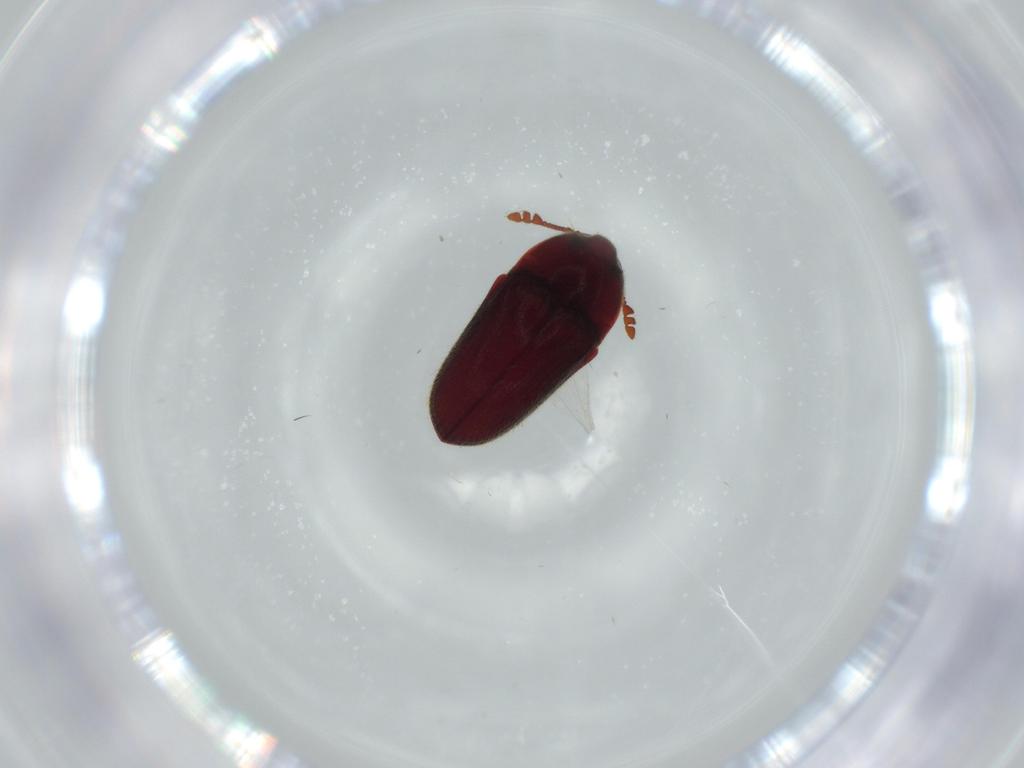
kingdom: Animalia
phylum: Arthropoda
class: Insecta
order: Coleoptera
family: Throscidae
